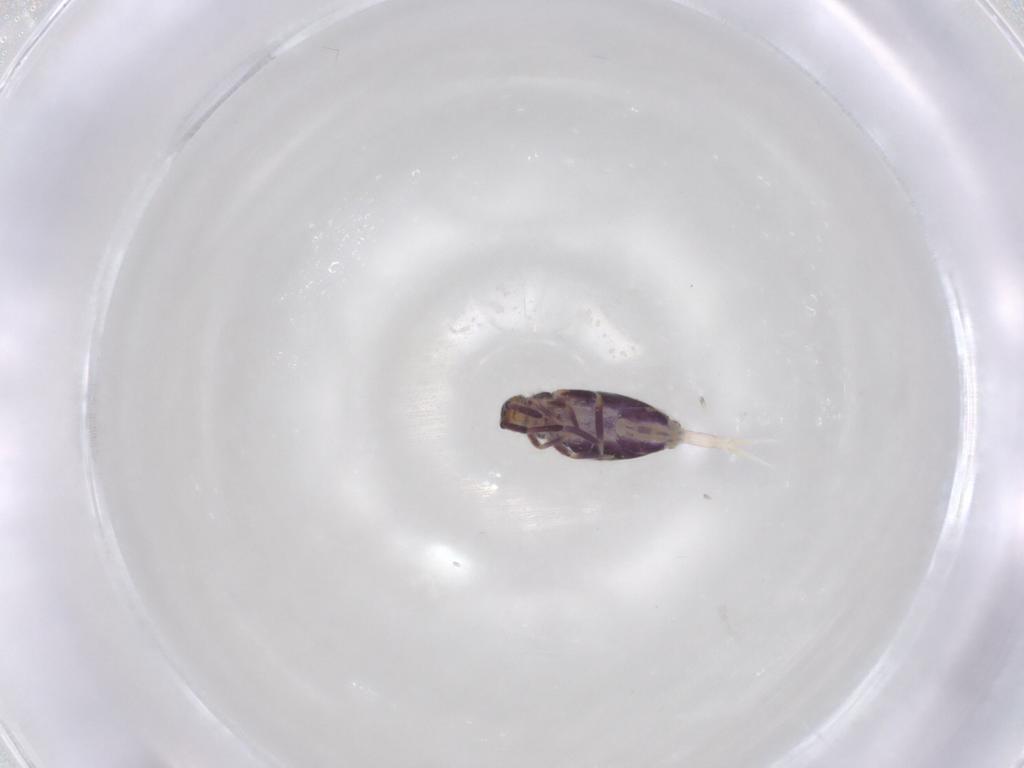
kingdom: Animalia
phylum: Arthropoda
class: Collembola
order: Entomobryomorpha
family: Entomobryidae
